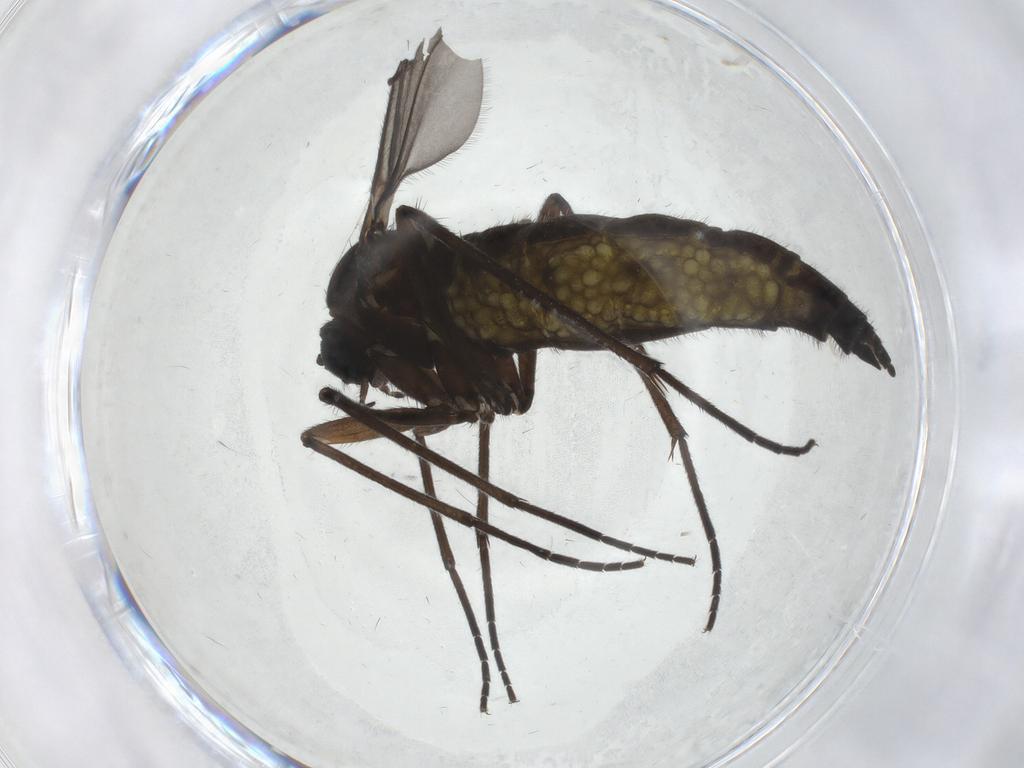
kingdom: Animalia
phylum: Arthropoda
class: Insecta
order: Diptera
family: Sciaridae
